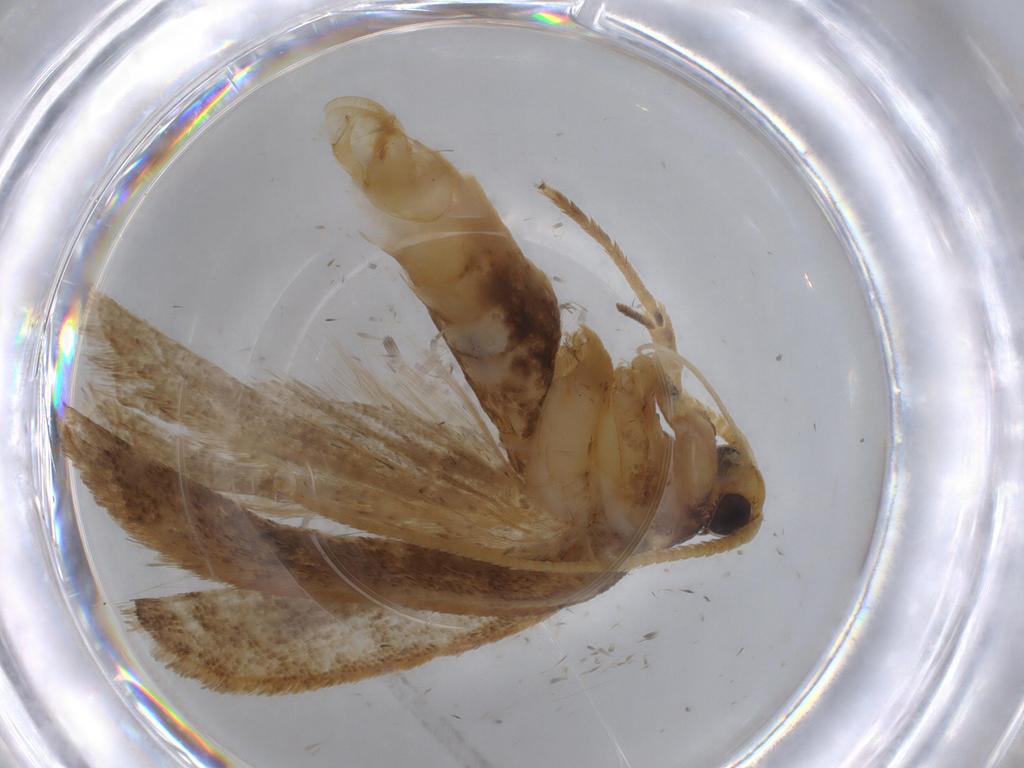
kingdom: Animalia
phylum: Arthropoda
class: Insecta
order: Lepidoptera
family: Lecithoceridae
